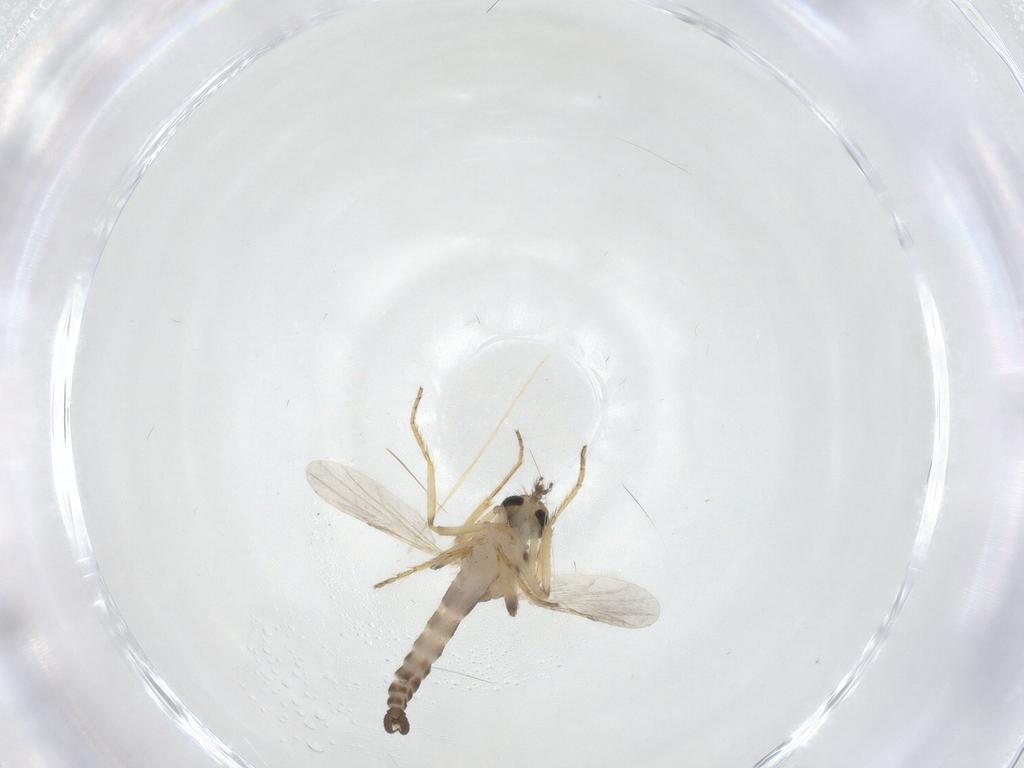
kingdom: Animalia
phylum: Arthropoda
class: Insecta
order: Diptera
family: Ceratopogonidae
